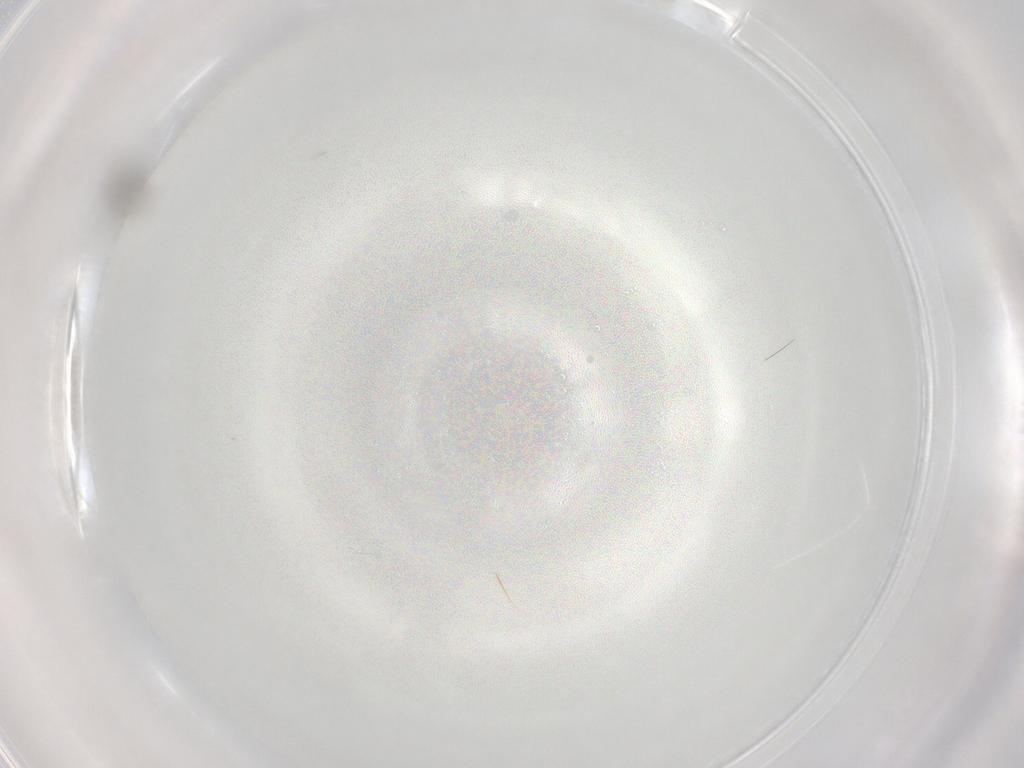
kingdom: Animalia
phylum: Arthropoda
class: Insecta
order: Diptera
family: Sciaridae
